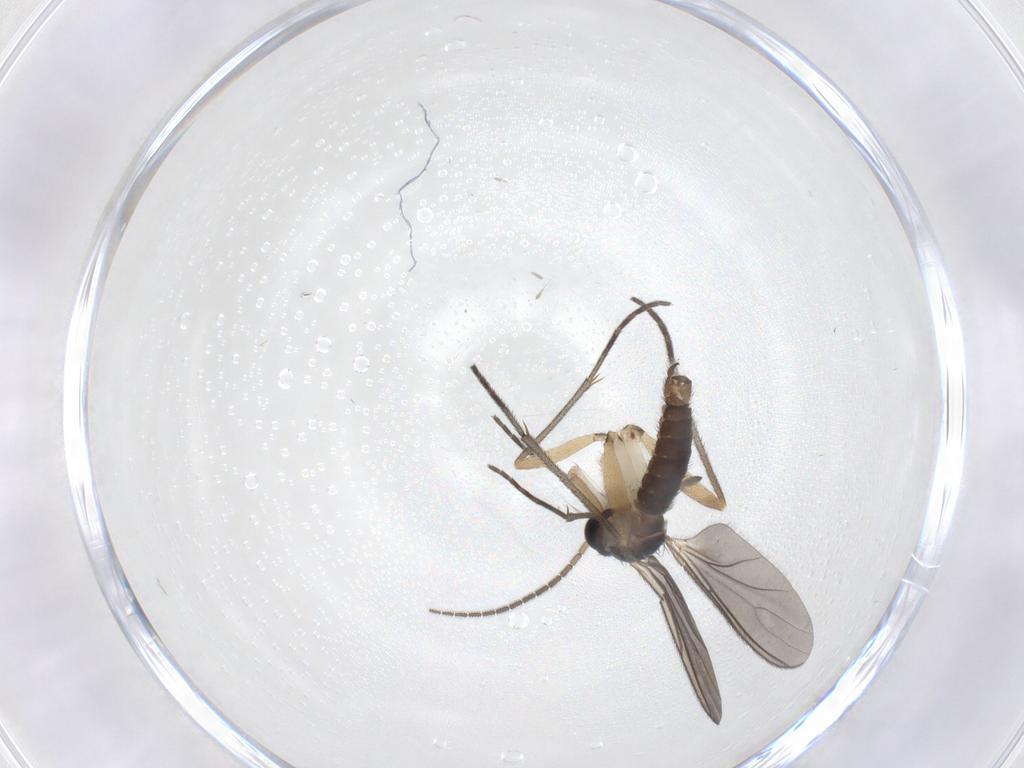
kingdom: Animalia
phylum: Arthropoda
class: Insecta
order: Diptera
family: Sciaridae
